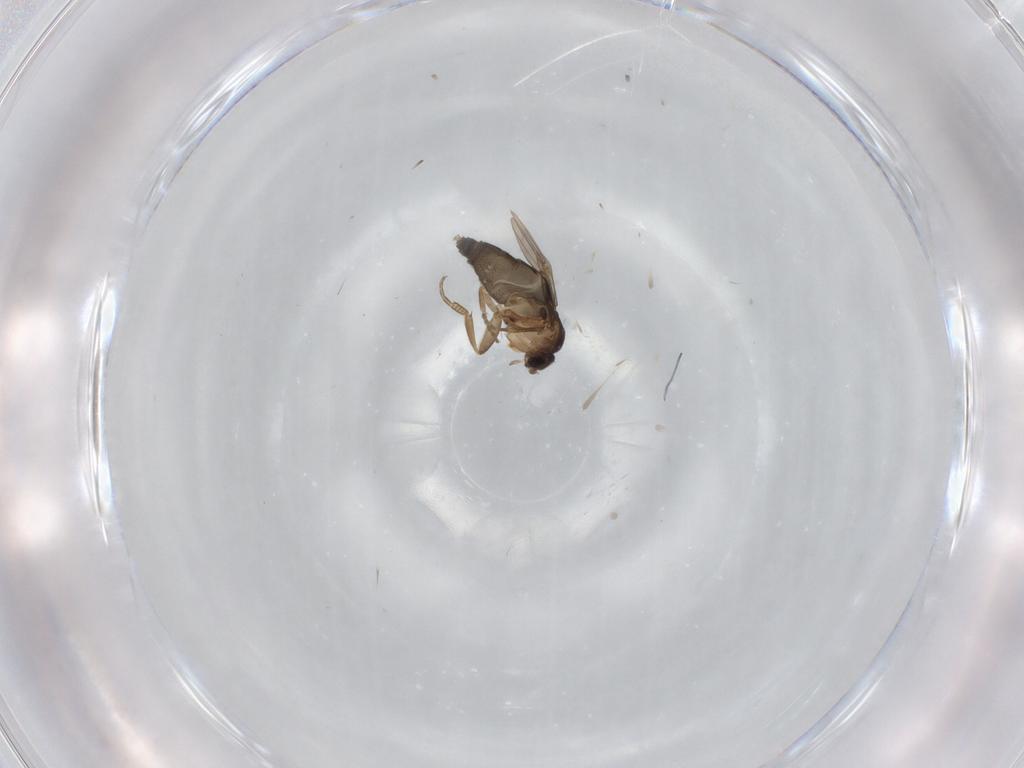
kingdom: Animalia
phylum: Arthropoda
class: Insecta
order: Diptera
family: Phoridae
